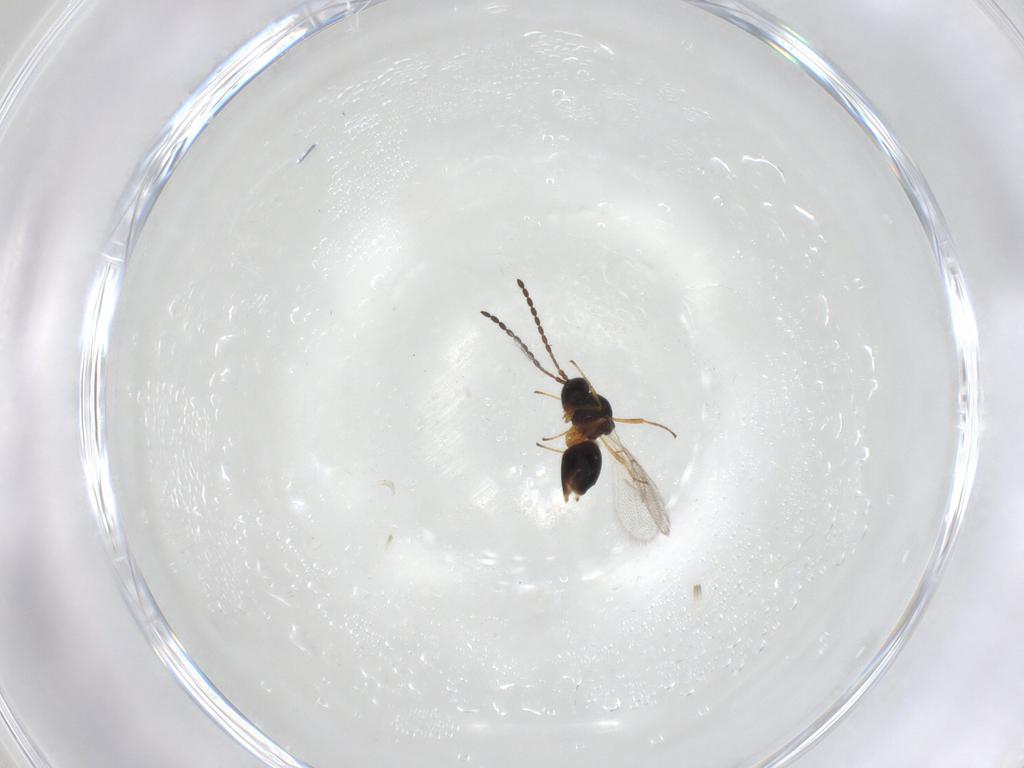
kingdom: Animalia
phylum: Arthropoda
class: Insecta
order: Hymenoptera
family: Figitidae
